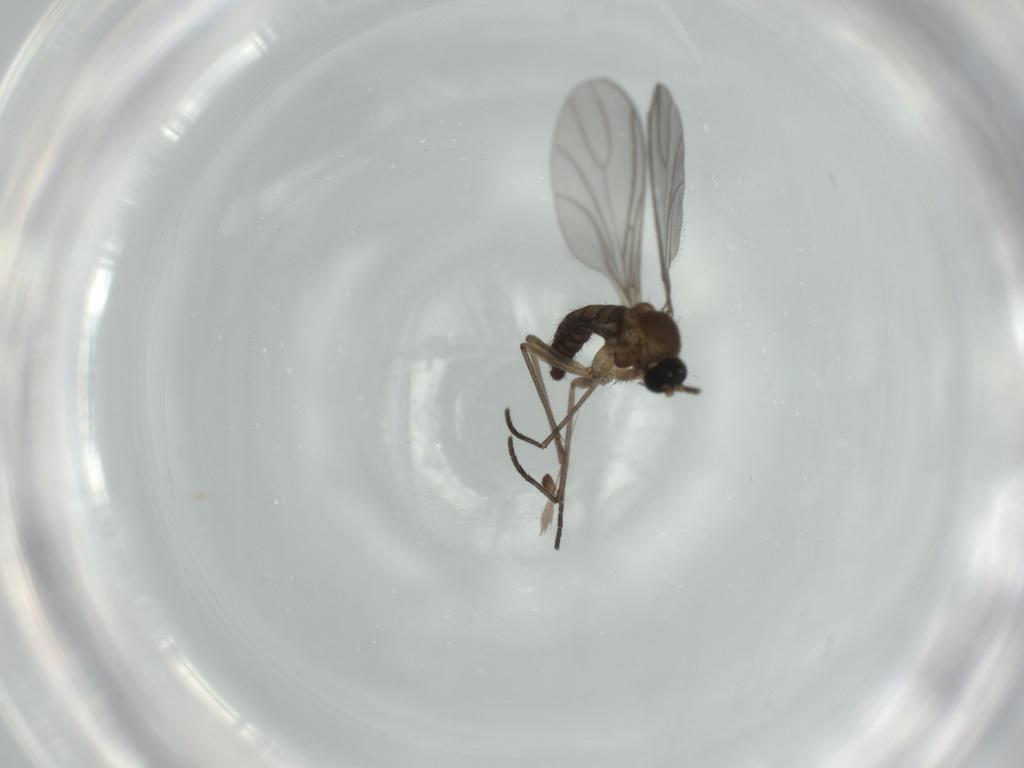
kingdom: Animalia
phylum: Arthropoda
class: Insecta
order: Diptera
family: Sciaridae
